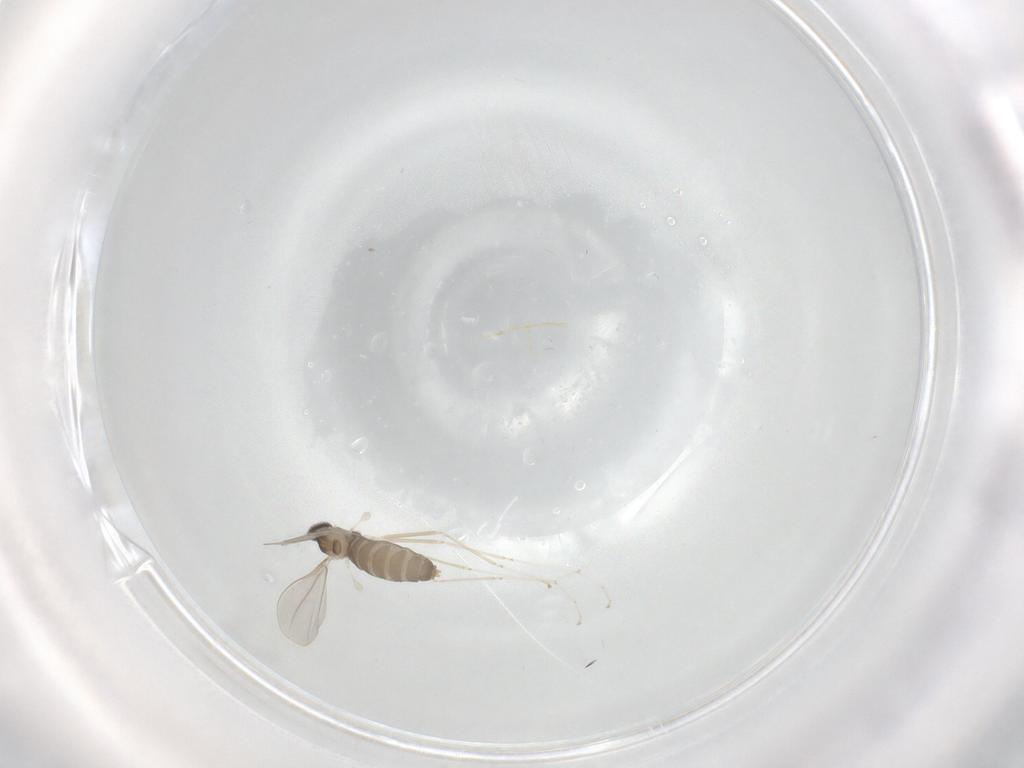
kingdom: Animalia
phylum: Arthropoda
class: Insecta
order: Diptera
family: Cecidomyiidae
